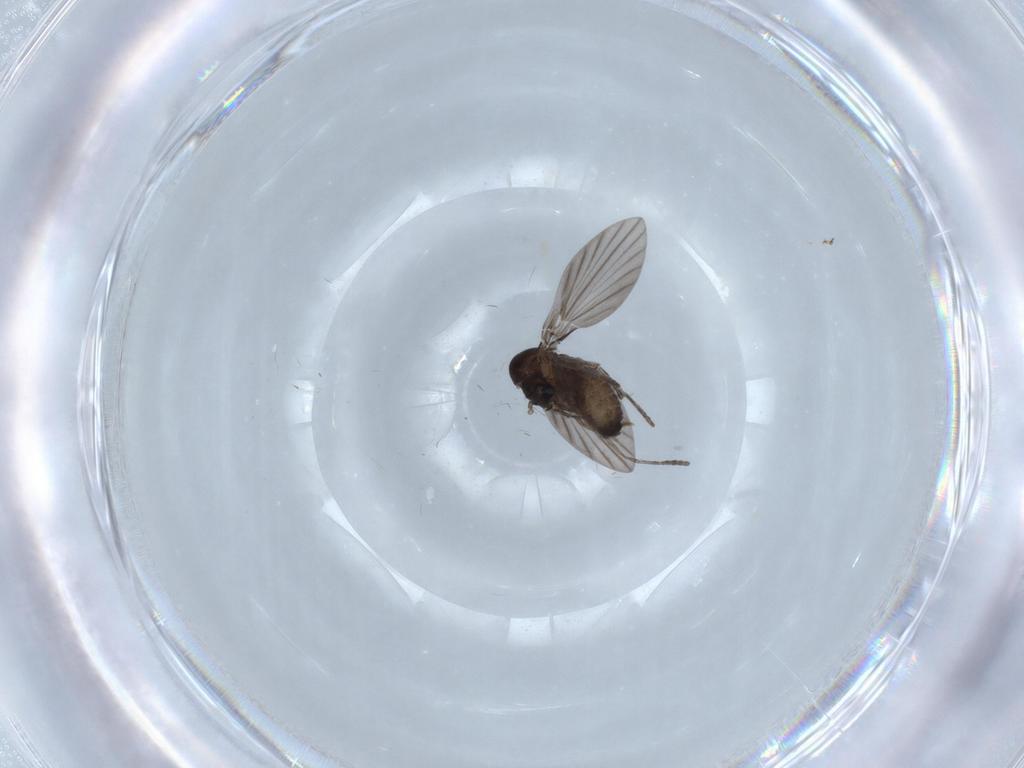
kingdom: Animalia
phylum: Arthropoda
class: Insecta
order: Diptera
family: Psychodidae
